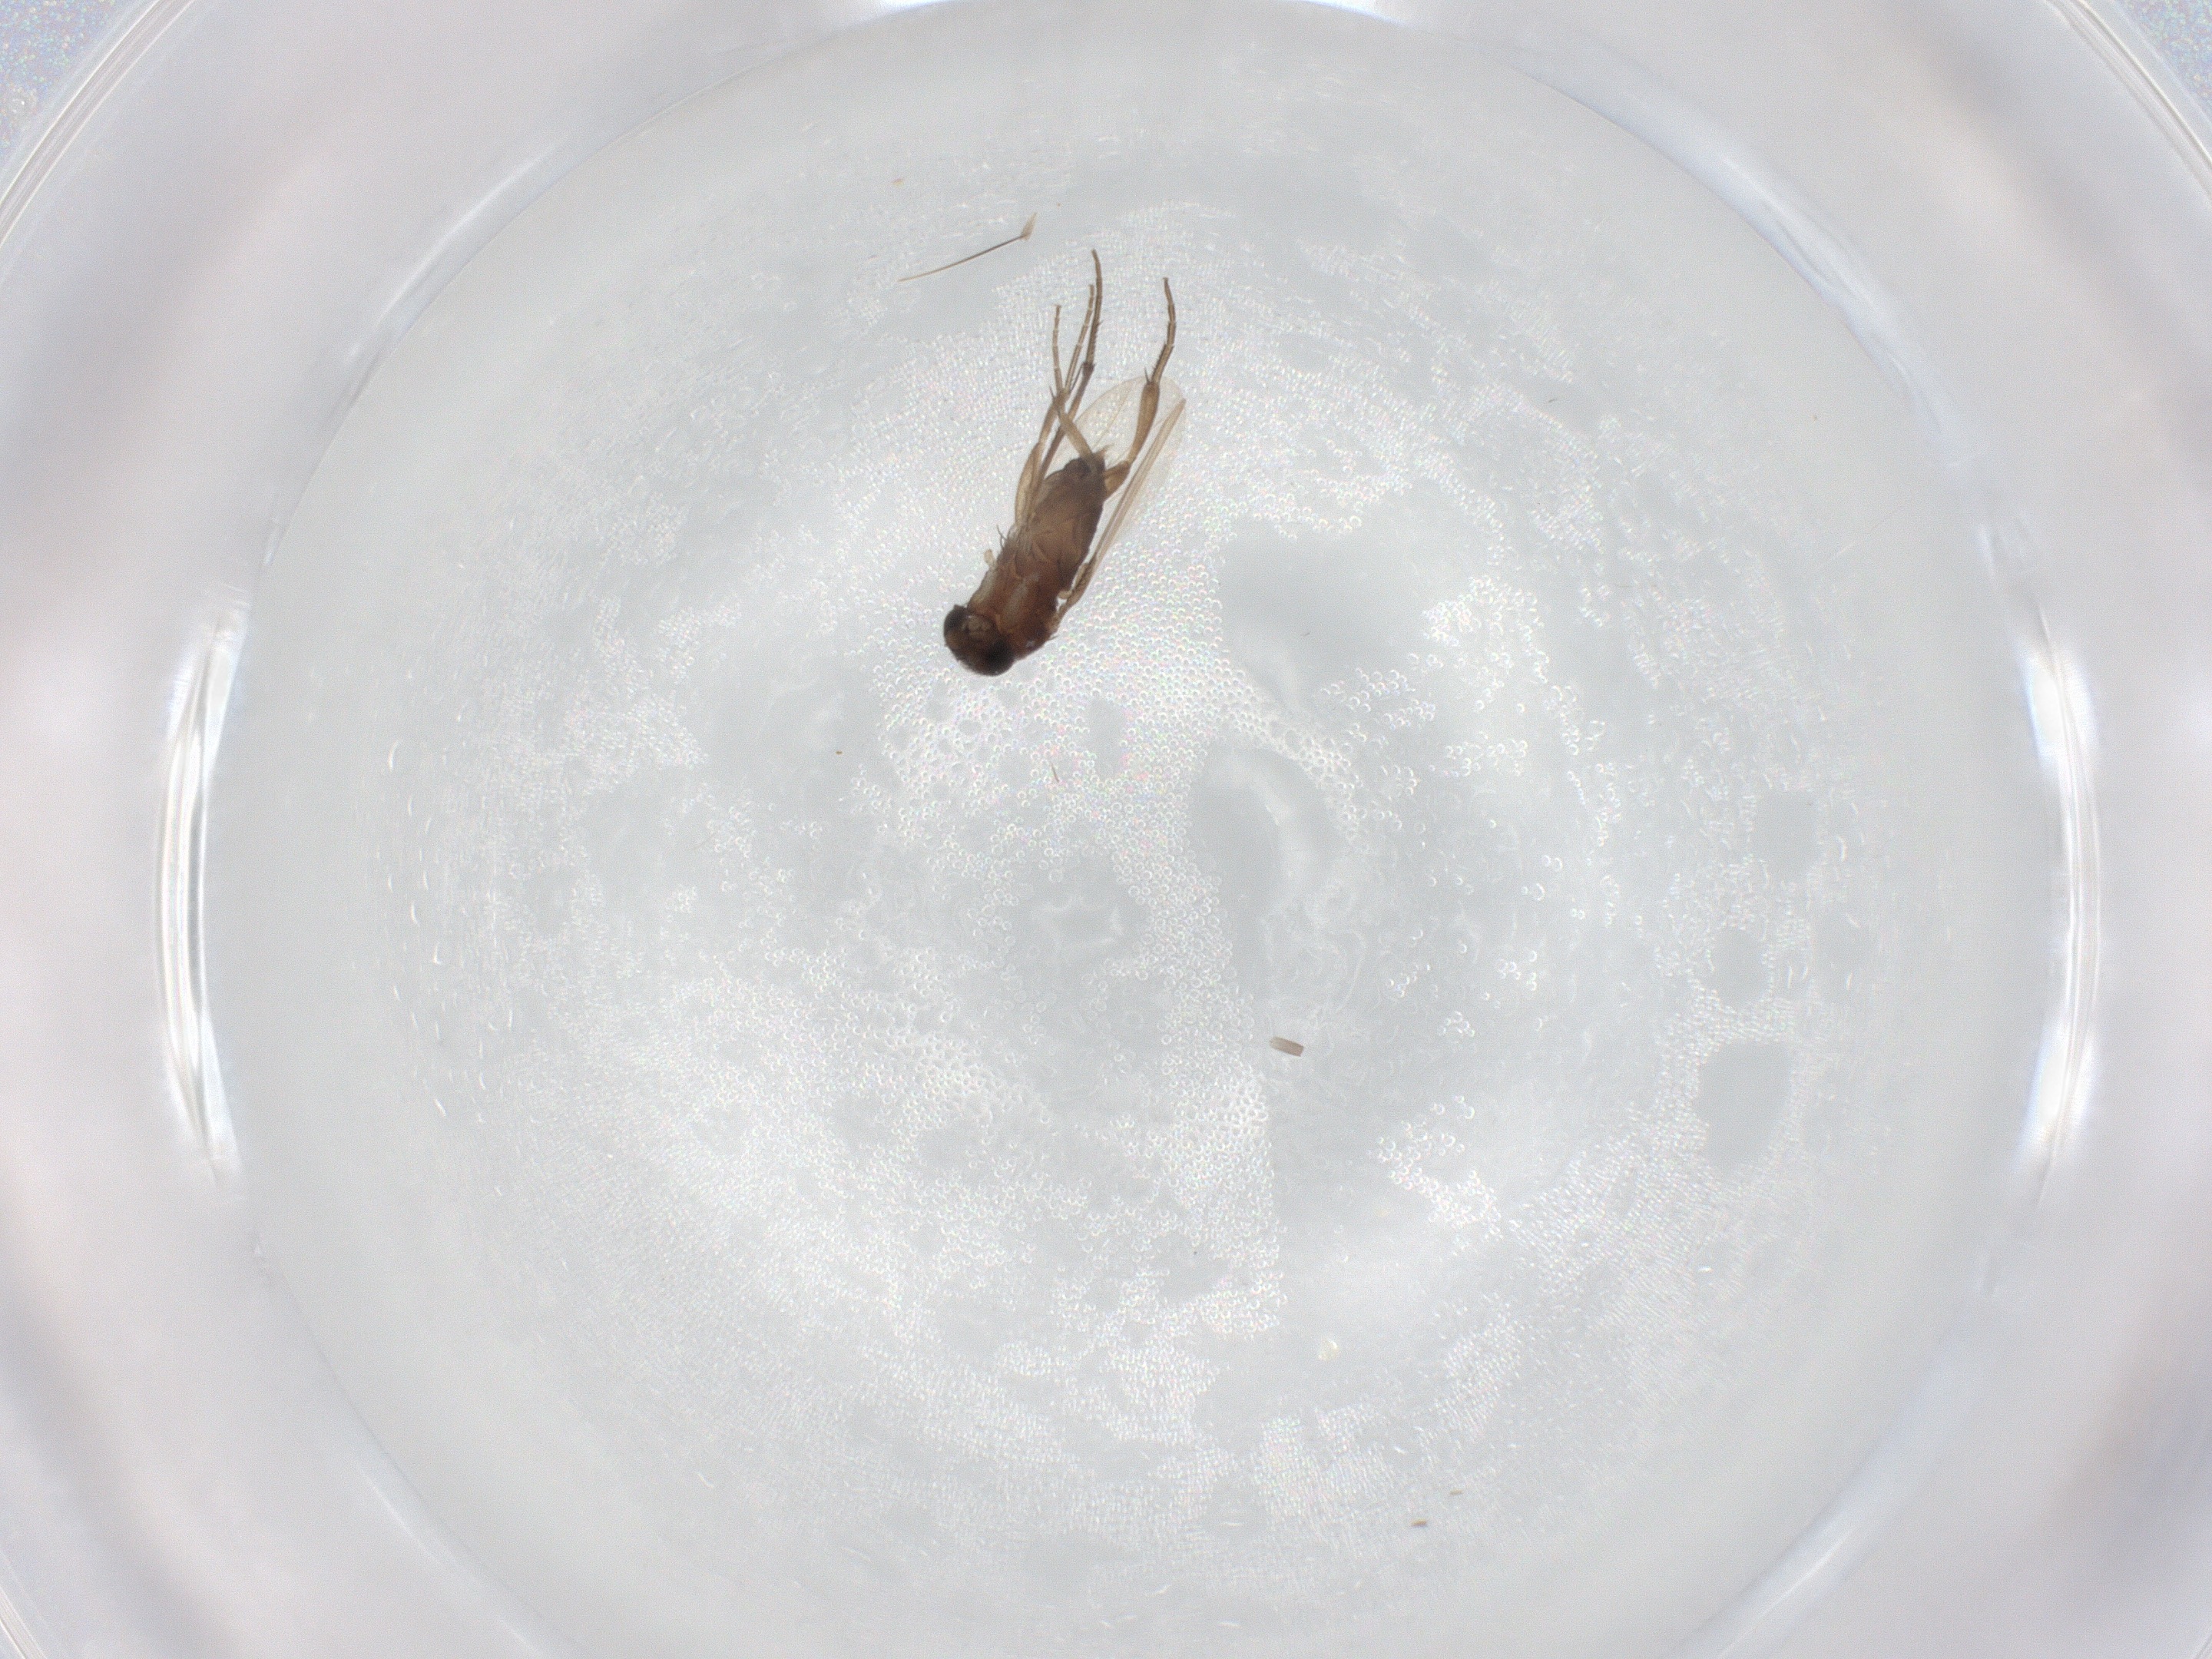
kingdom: Animalia
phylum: Arthropoda
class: Insecta
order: Diptera
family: Phoridae
